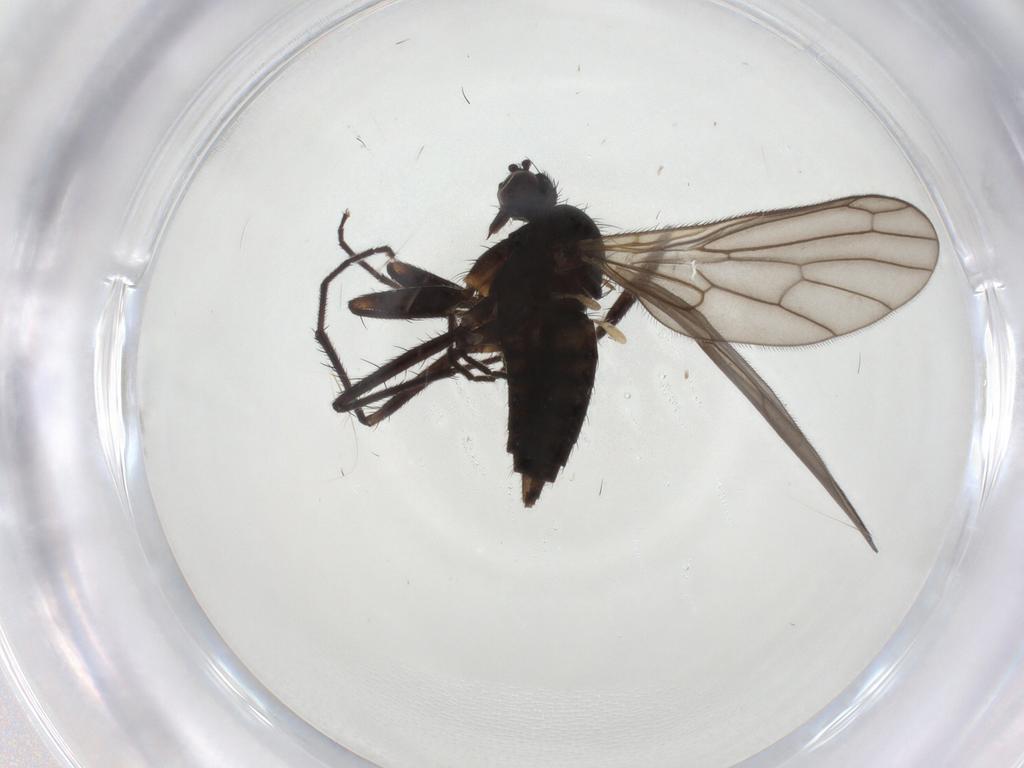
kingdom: Animalia
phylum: Arthropoda
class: Insecta
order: Diptera
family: Empididae
